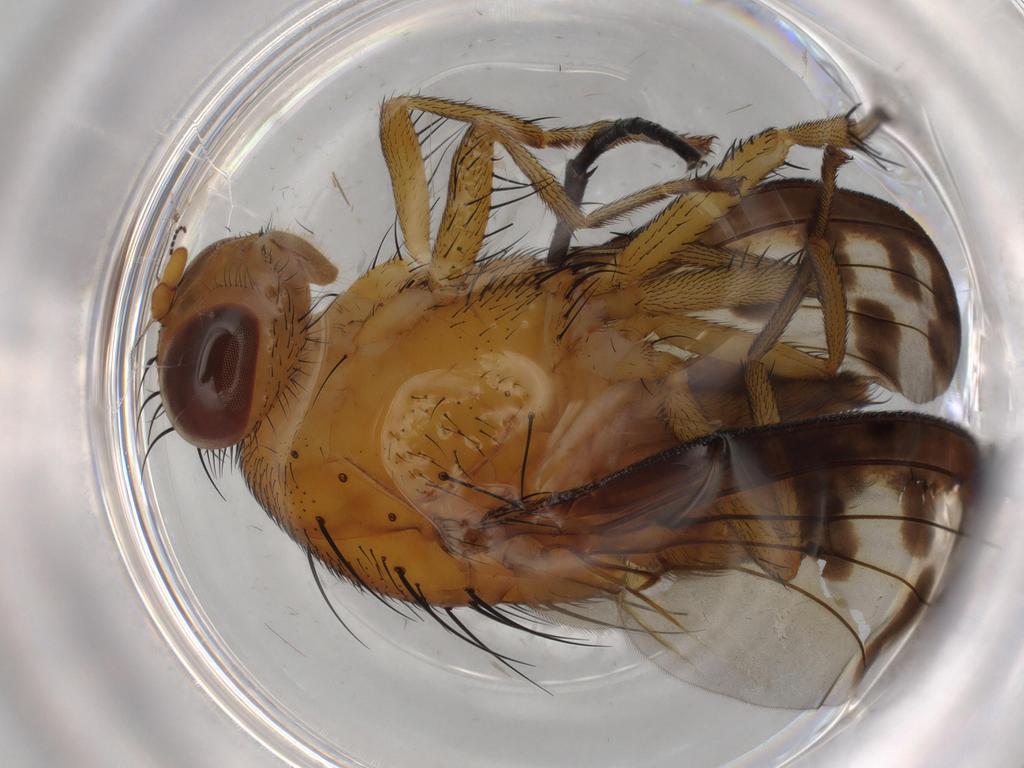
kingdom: Animalia
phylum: Arthropoda
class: Insecta
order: Diptera
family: Sciaridae
